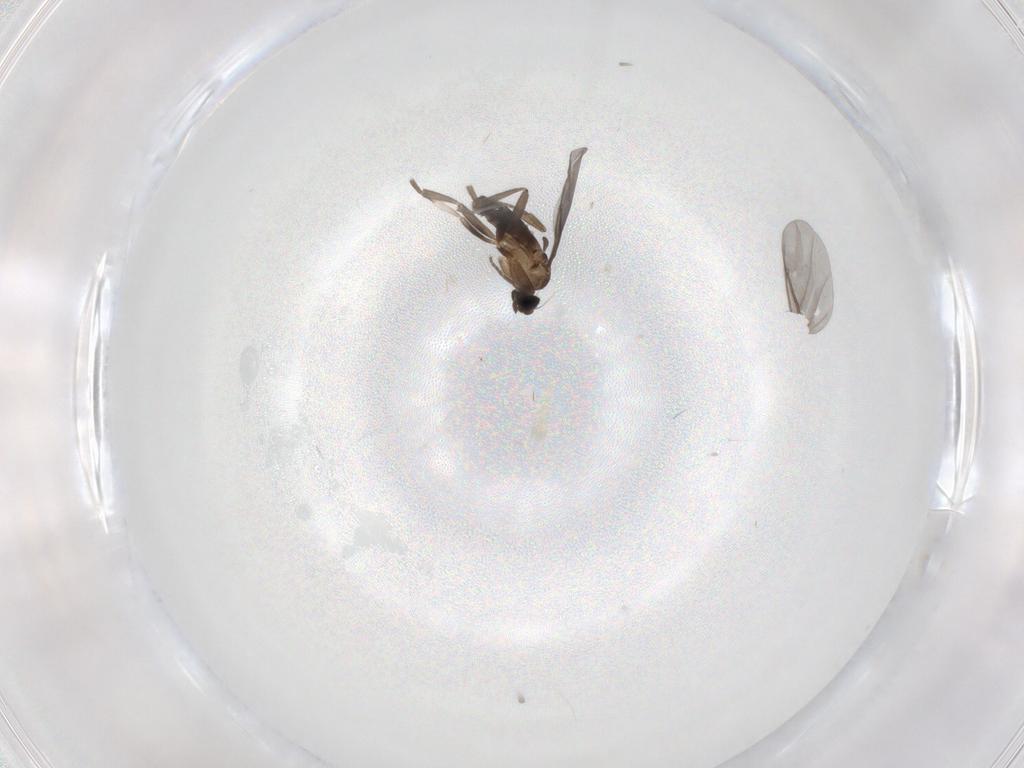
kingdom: Animalia
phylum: Arthropoda
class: Insecta
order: Diptera
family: Phoridae
